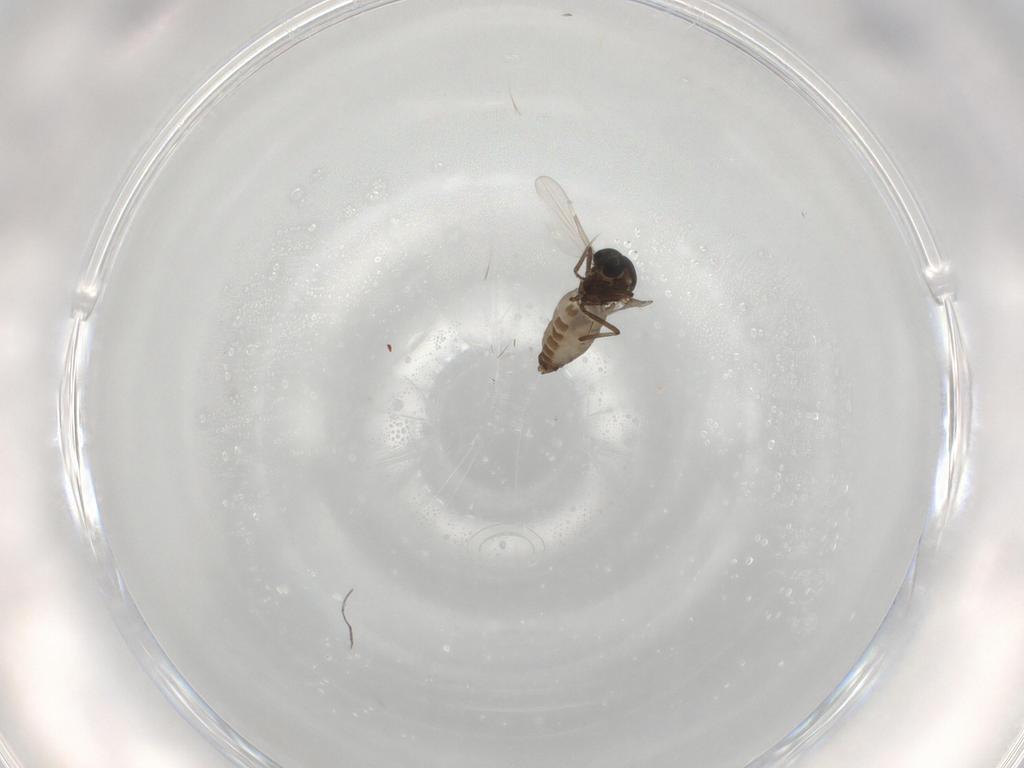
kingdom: Animalia
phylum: Arthropoda
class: Insecta
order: Diptera
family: Ceratopogonidae
